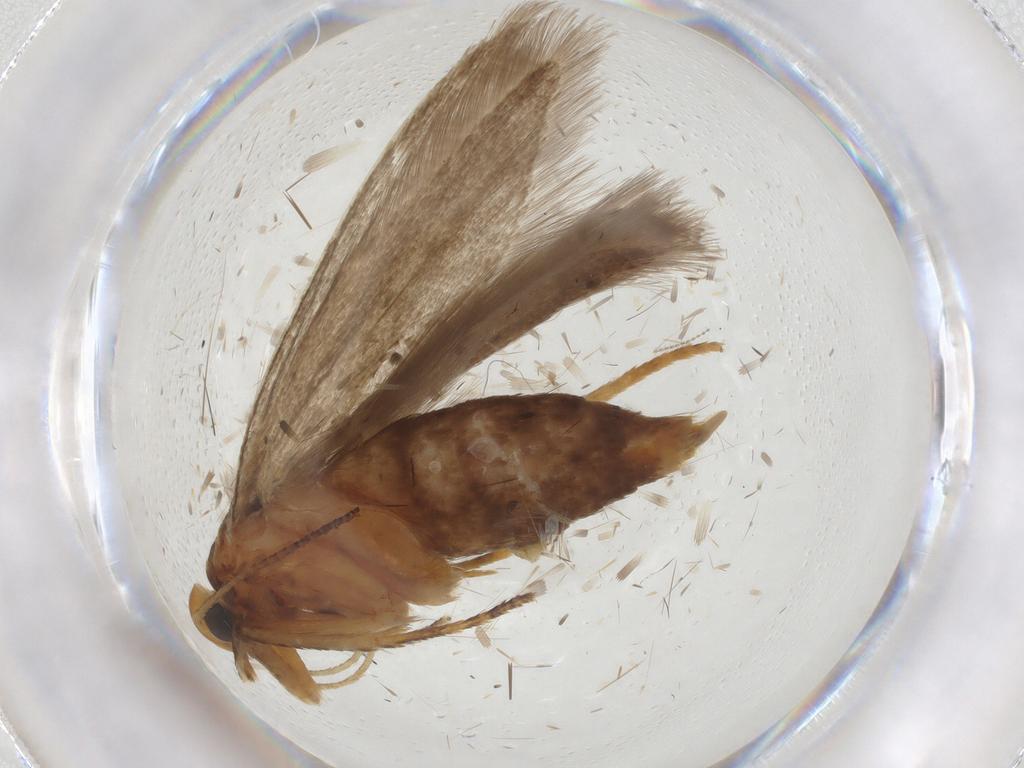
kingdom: Animalia
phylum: Arthropoda
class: Insecta
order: Lepidoptera
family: Gelechiidae
